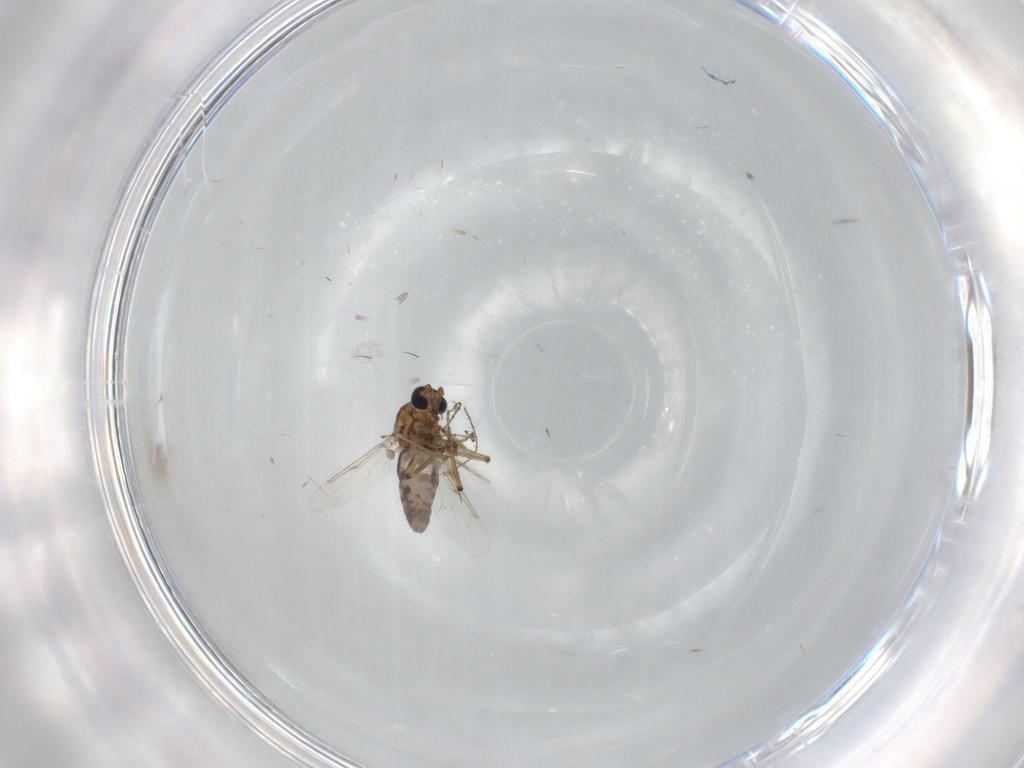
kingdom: Animalia
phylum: Arthropoda
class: Insecta
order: Diptera
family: Ceratopogonidae
